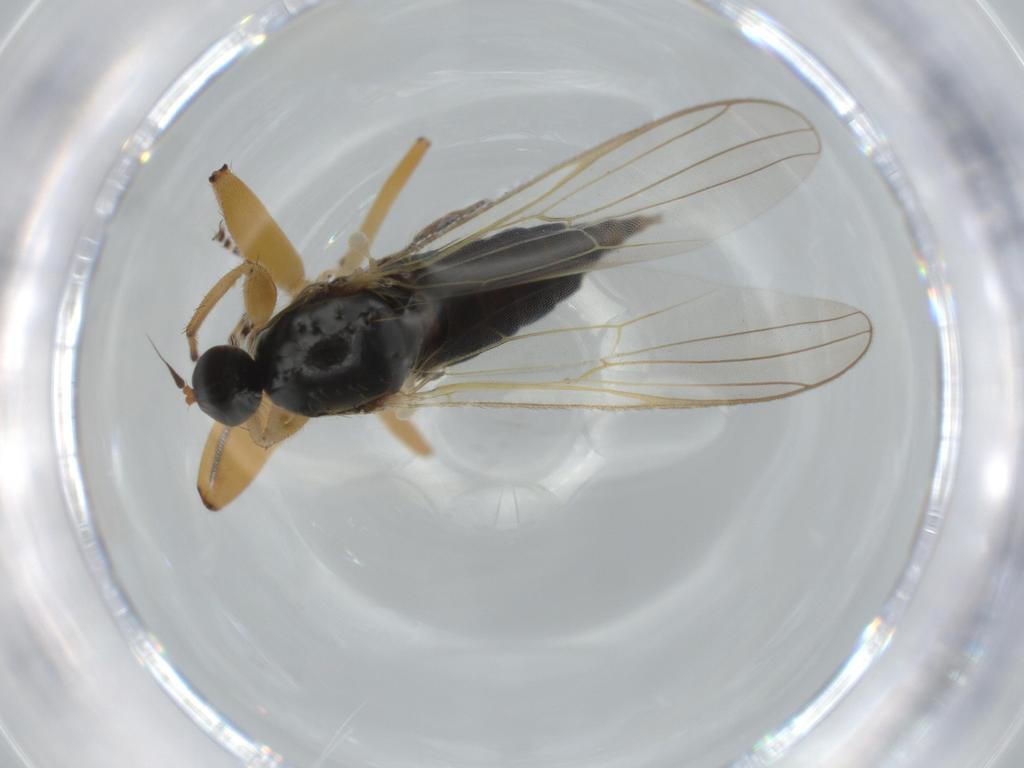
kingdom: Animalia
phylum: Arthropoda
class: Insecta
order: Diptera
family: Hybotidae
